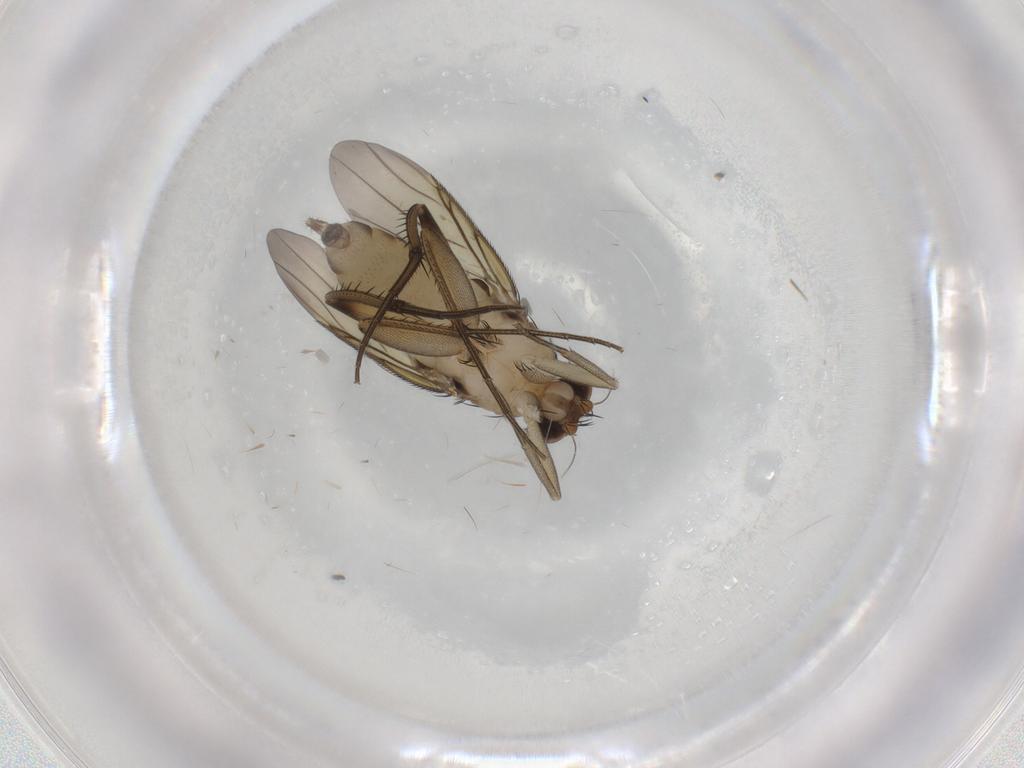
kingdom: Animalia
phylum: Arthropoda
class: Insecta
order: Diptera
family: Phoridae
